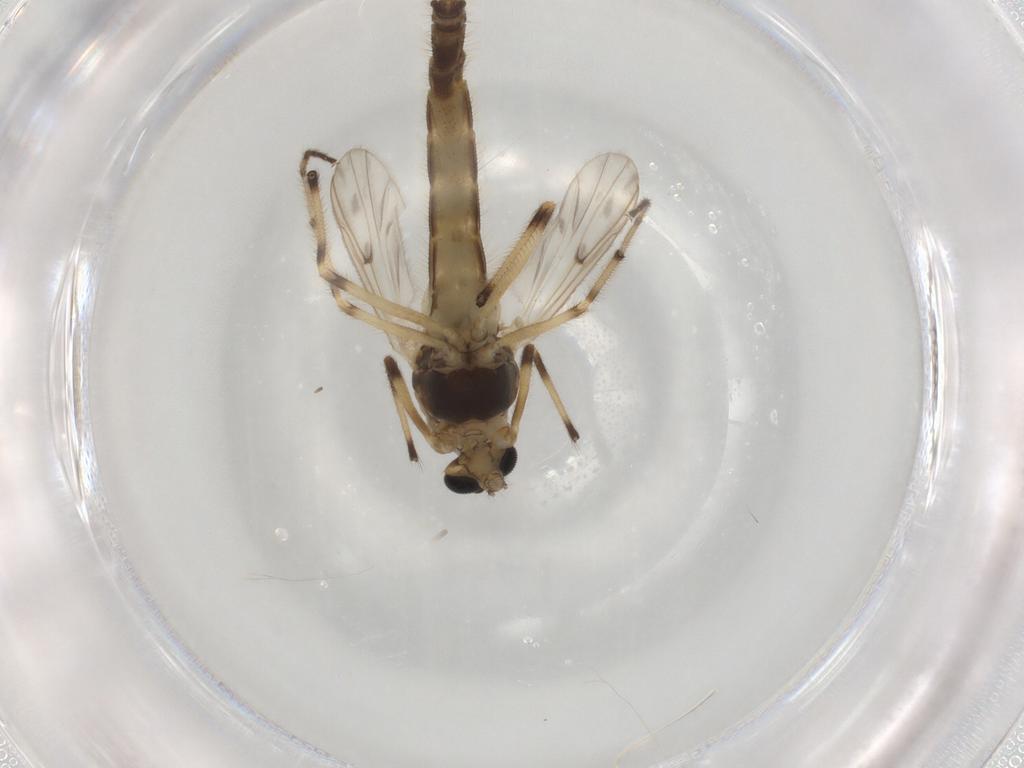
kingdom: Animalia
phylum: Arthropoda
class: Insecta
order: Diptera
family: Chironomidae
